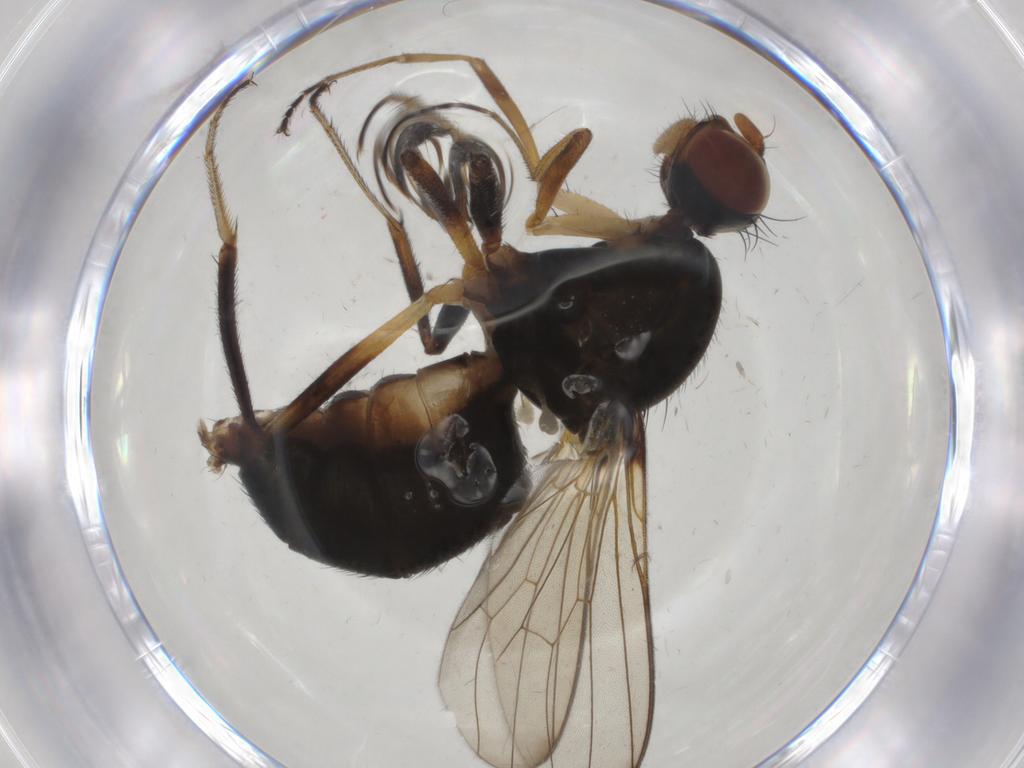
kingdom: Animalia
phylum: Arthropoda
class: Insecta
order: Diptera
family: Sepsidae
